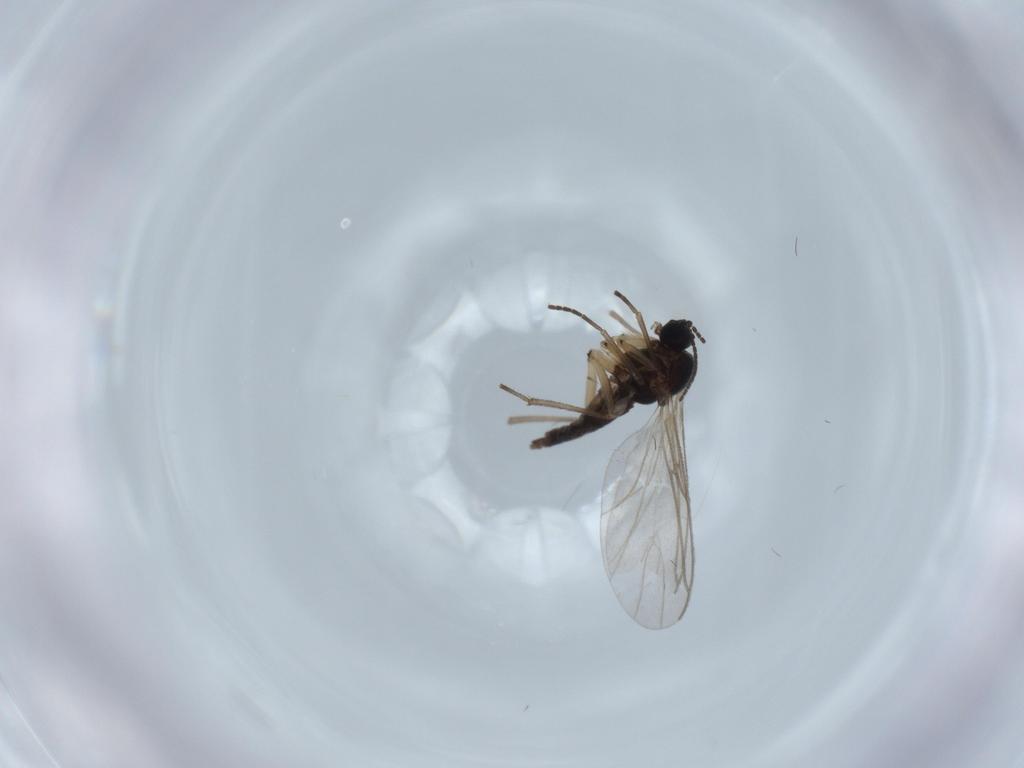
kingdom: Animalia
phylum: Arthropoda
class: Insecta
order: Diptera
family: Sciaridae
